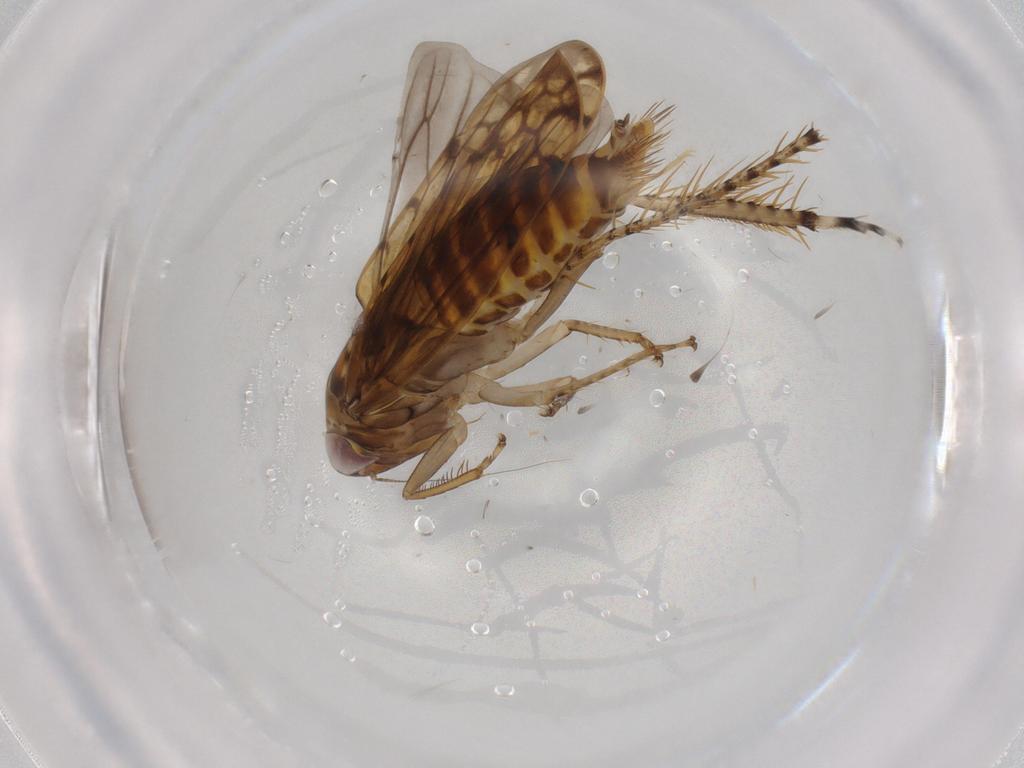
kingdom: Animalia
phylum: Arthropoda
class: Insecta
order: Hemiptera
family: Cicadellidae
